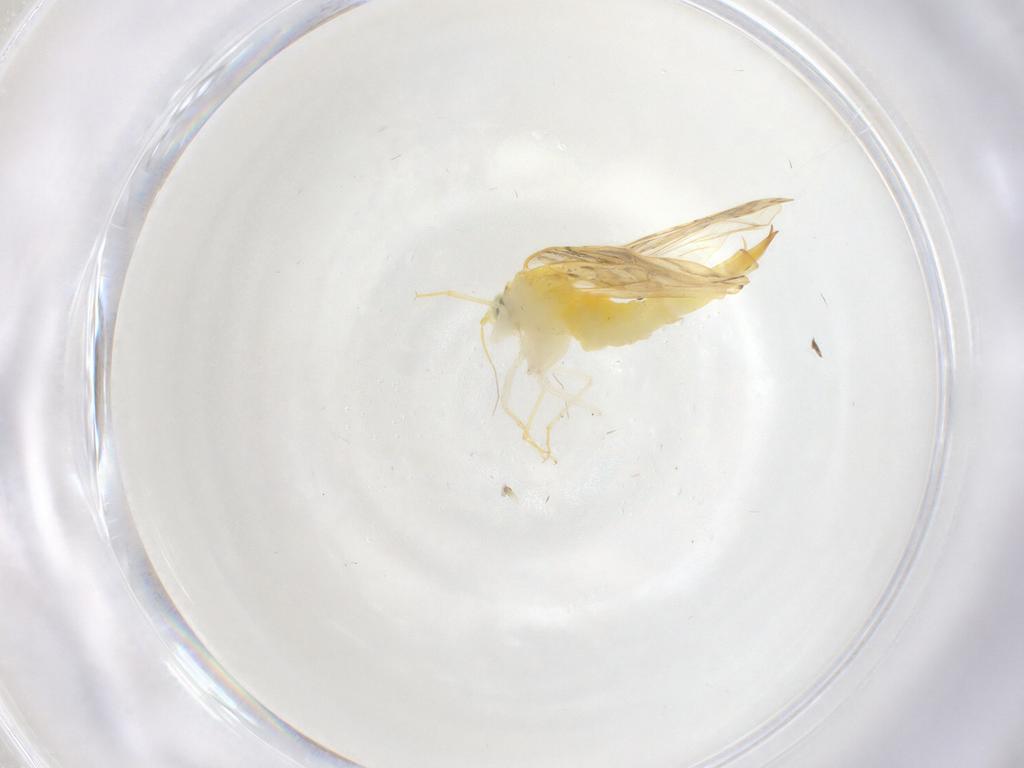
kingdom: Animalia
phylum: Arthropoda
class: Insecta
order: Hemiptera
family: Aleyrodidae
